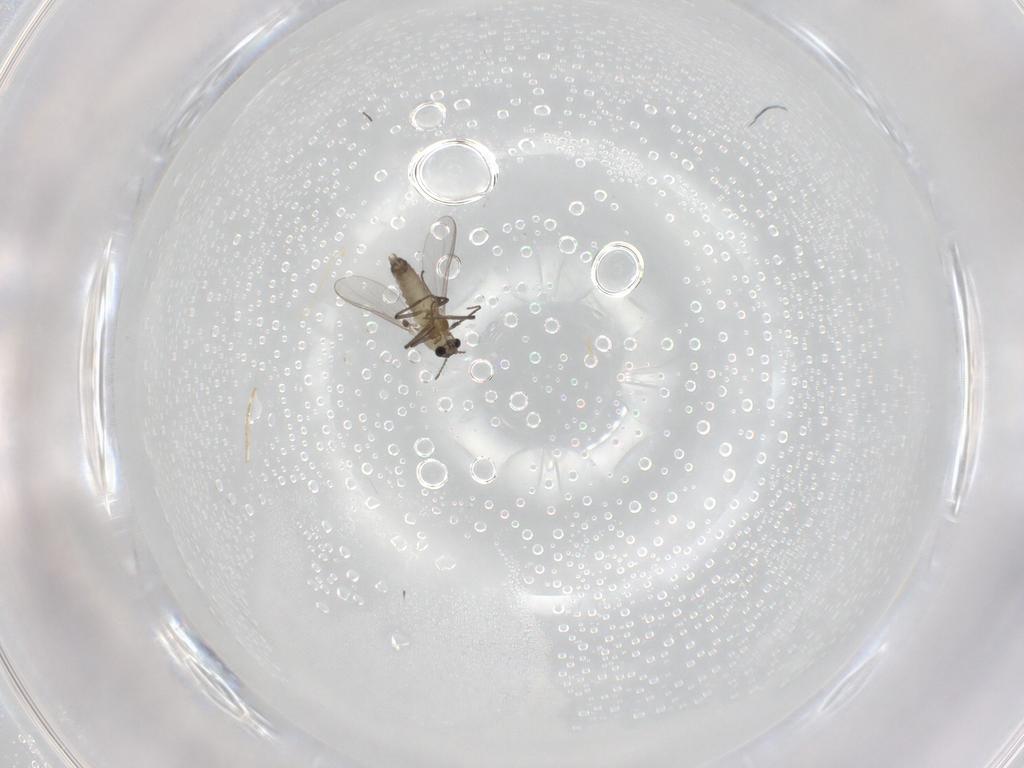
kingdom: Animalia
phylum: Arthropoda
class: Insecta
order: Diptera
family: Chironomidae
